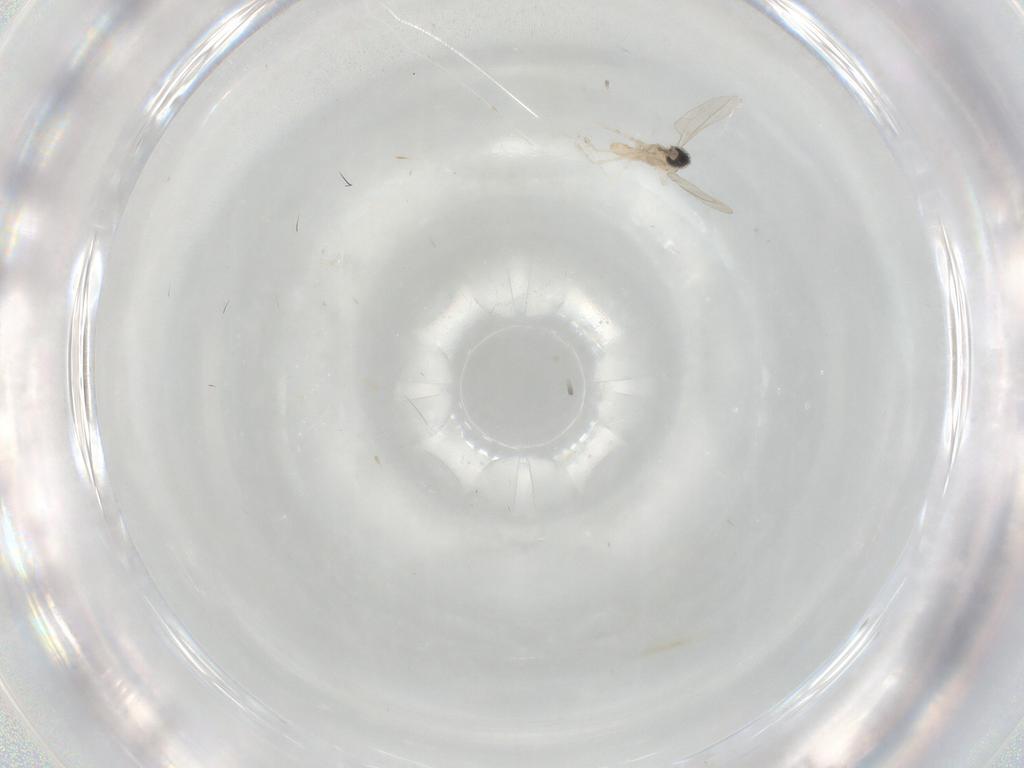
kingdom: Animalia
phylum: Arthropoda
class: Insecta
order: Diptera
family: Cecidomyiidae
